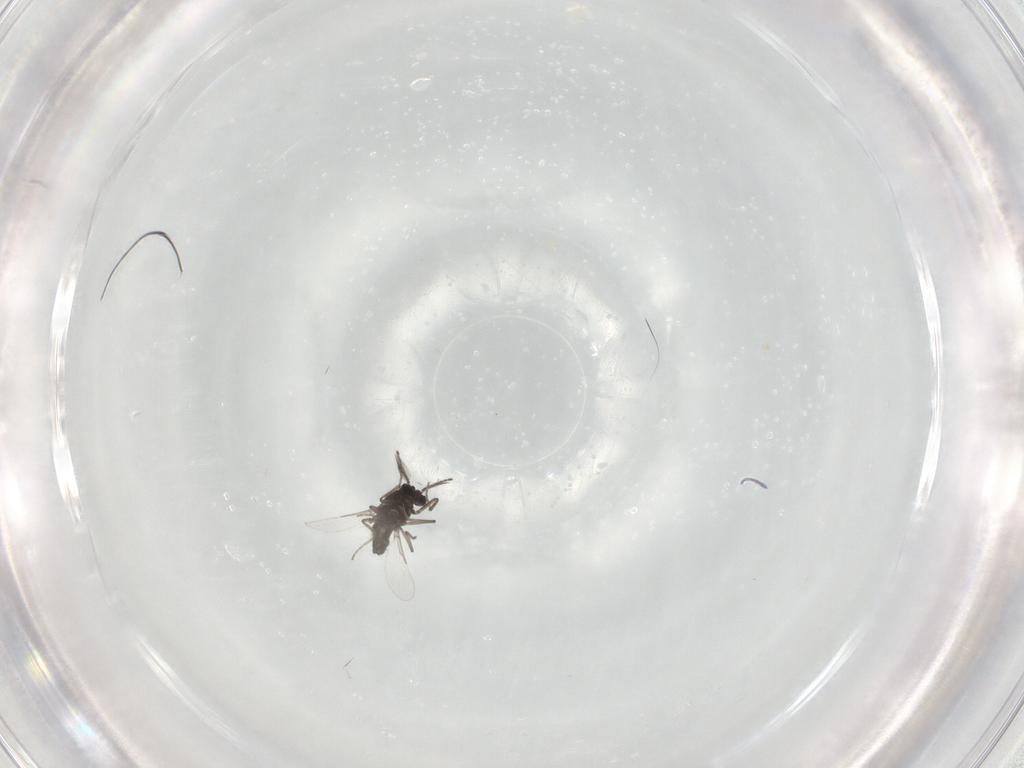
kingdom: Animalia
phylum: Arthropoda
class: Insecta
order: Diptera
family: Ceratopogonidae
